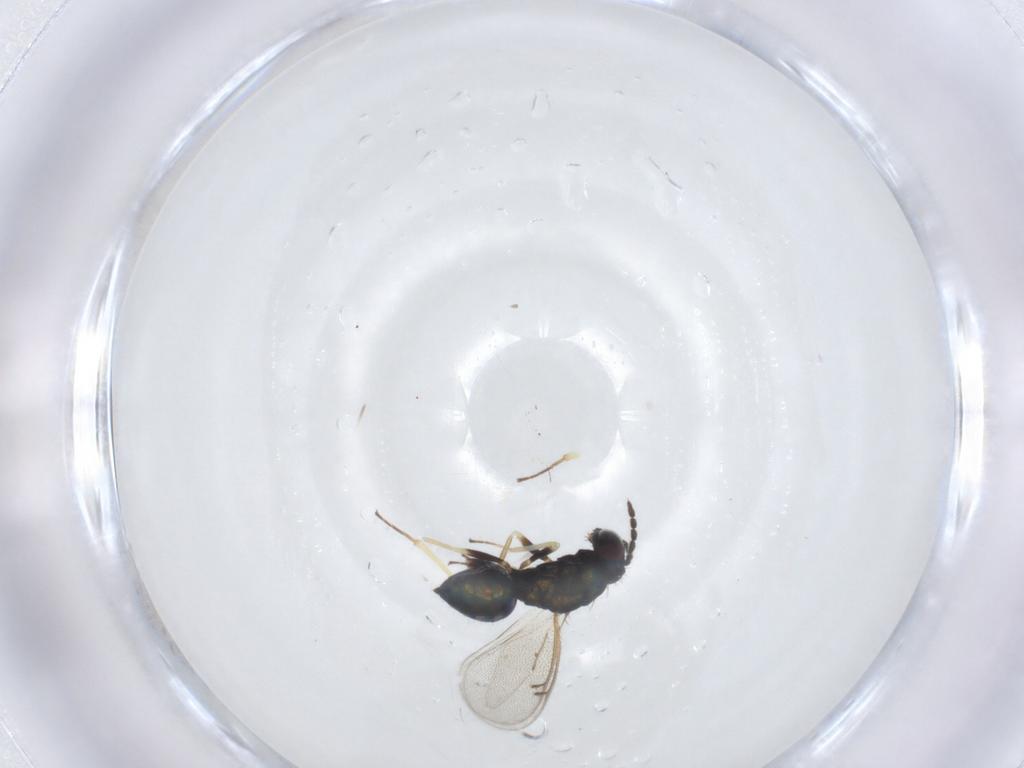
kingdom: Animalia
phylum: Arthropoda
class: Insecta
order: Hymenoptera
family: Eulophidae
